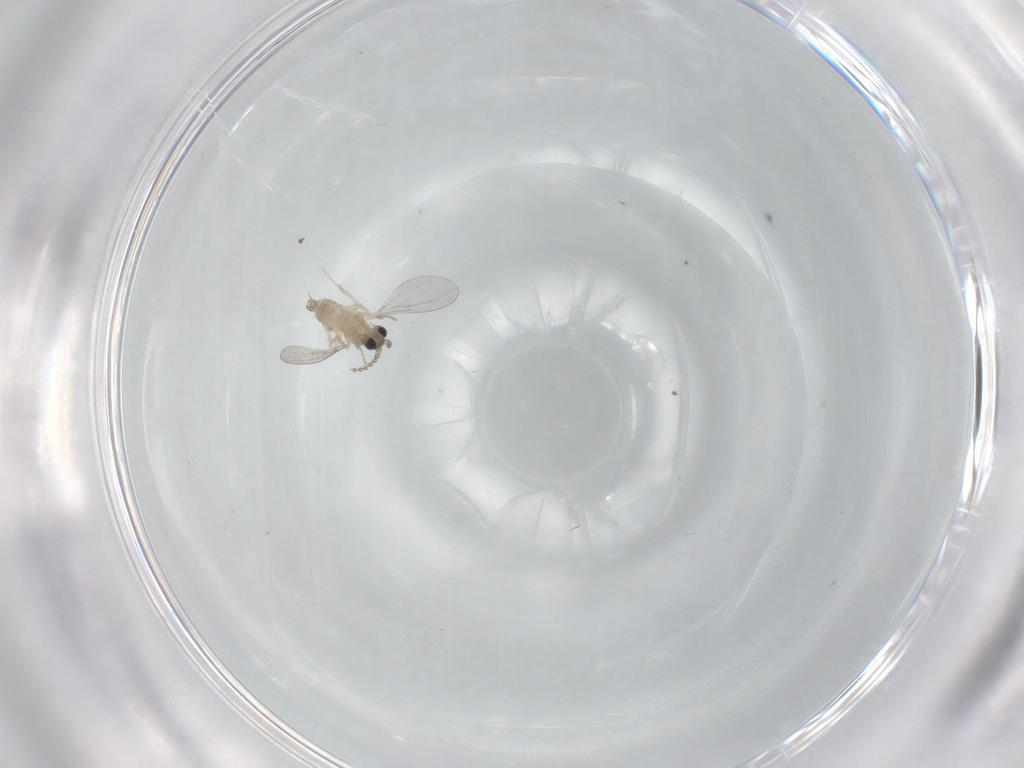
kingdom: Animalia
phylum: Arthropoda
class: Insecta
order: Diptera
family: Cecidomyiidae
